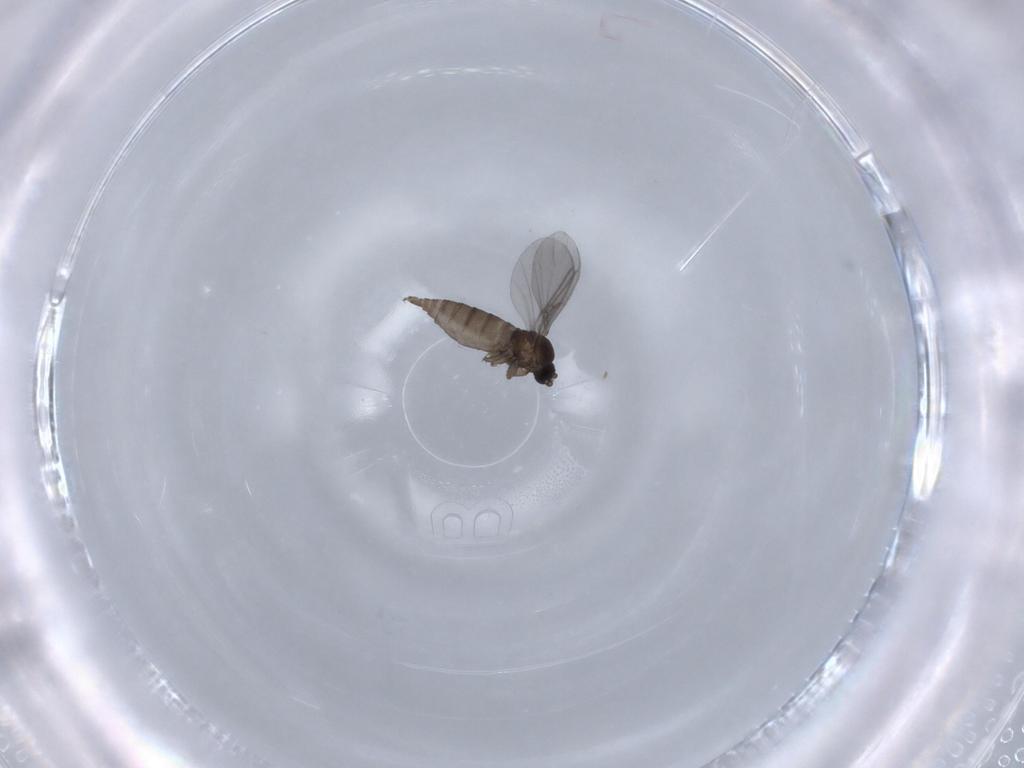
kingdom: Animalia
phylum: Arthropoda
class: Insecta
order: Diptera
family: Sciaridae
